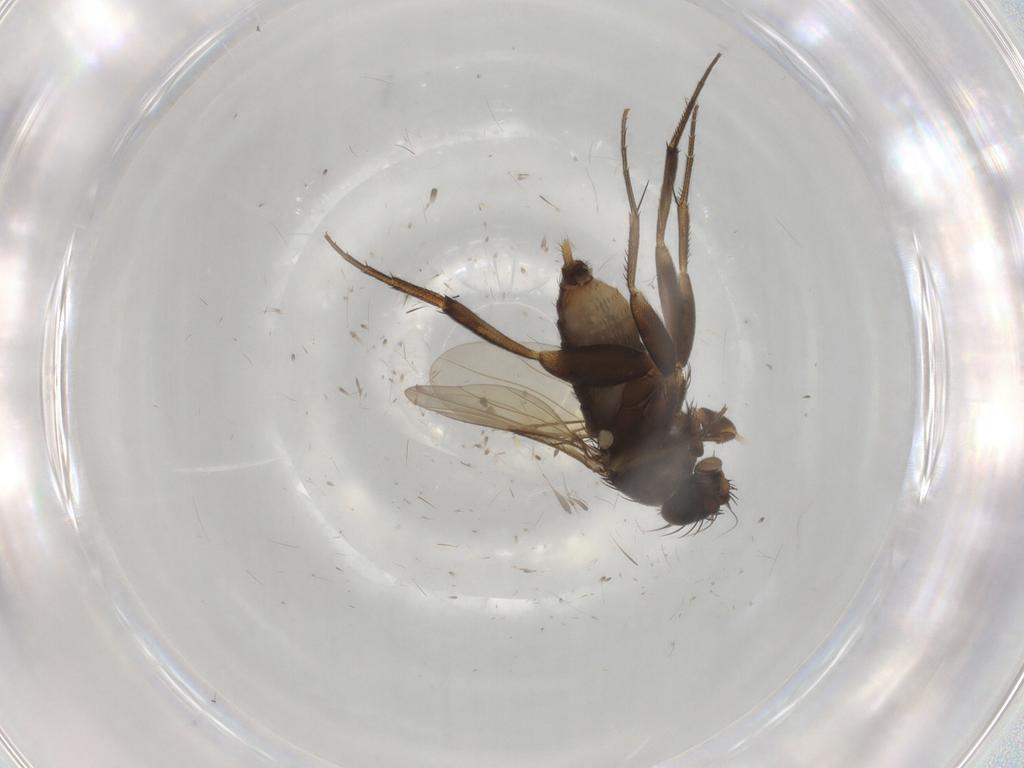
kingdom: Animalia
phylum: Arthropoda
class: Insecta
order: Diptera
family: Phoridae
